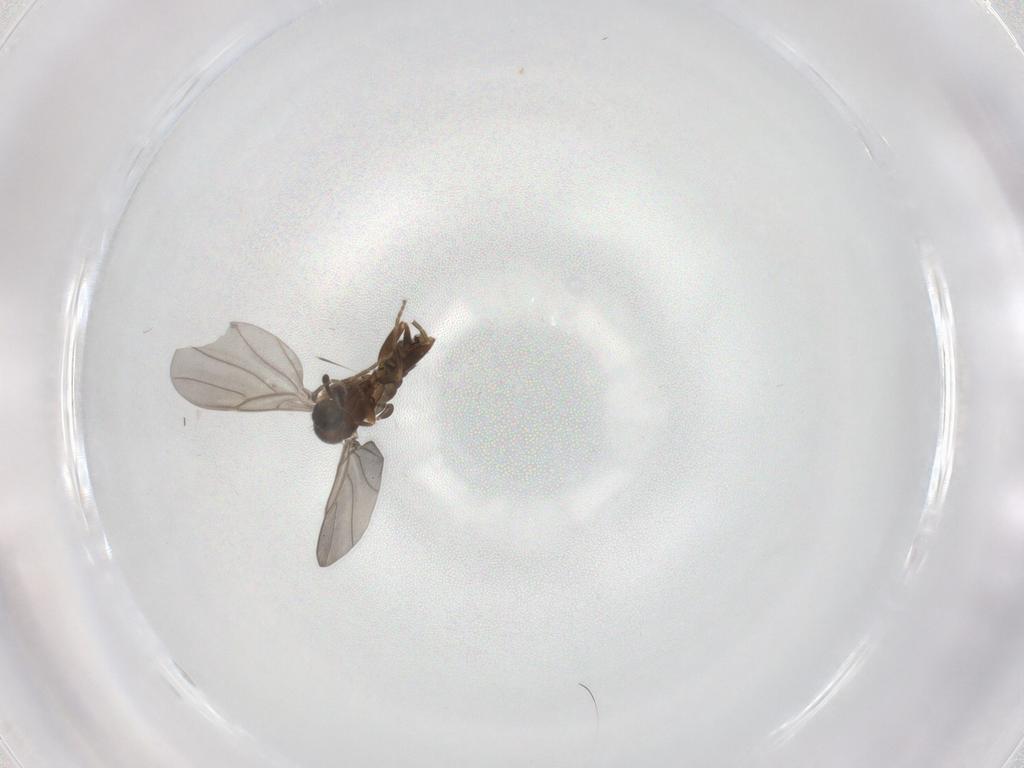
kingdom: Animalia
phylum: Arthropoda
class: Insecta
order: Diptera
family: Phoridae
